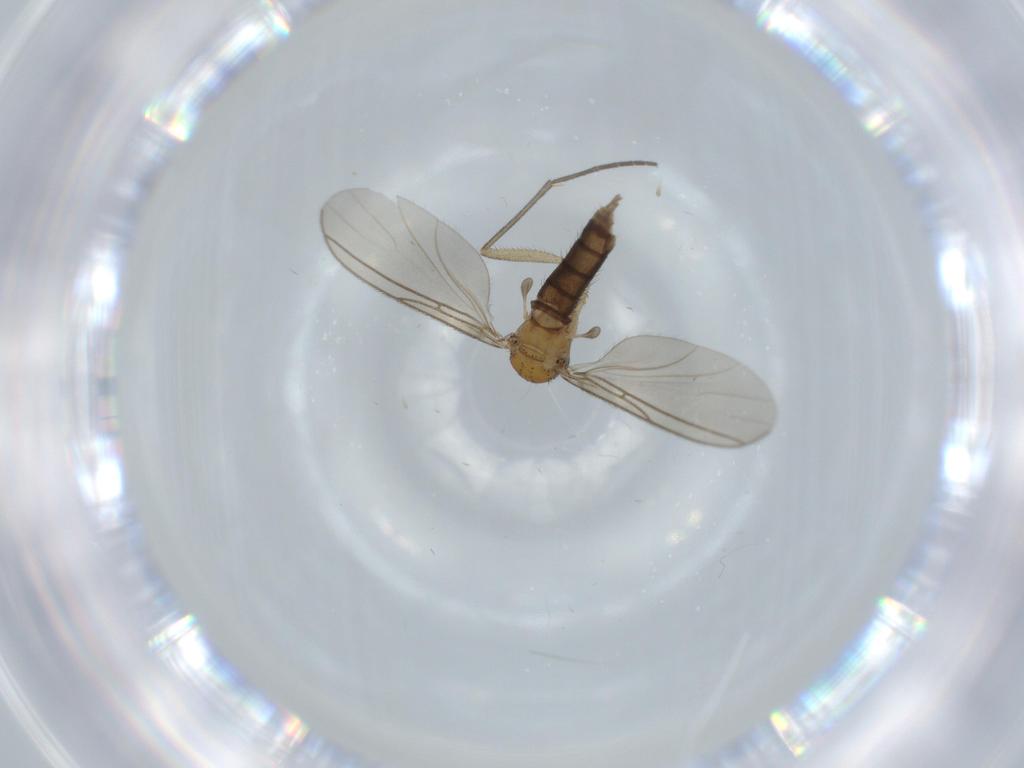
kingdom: Animalia
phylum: Arthropoda
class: Insecta
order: Diptera
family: Sciaridae
